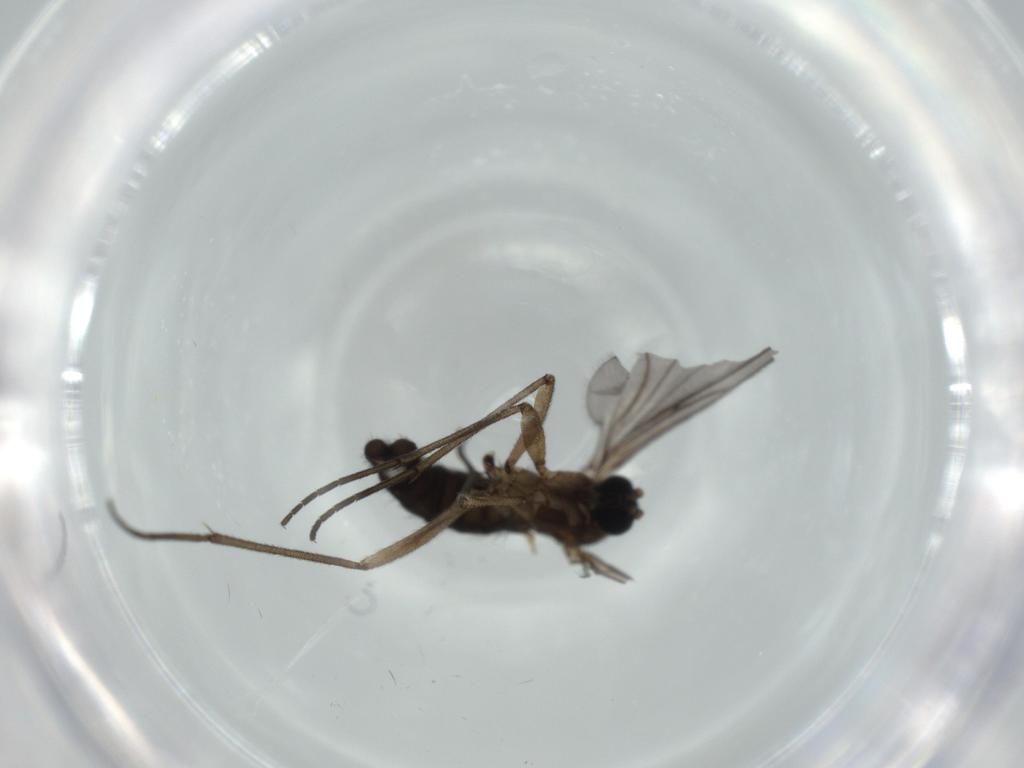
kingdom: Animalia
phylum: Arthropoda
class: Insecta
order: Diptera
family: Sciaridae
